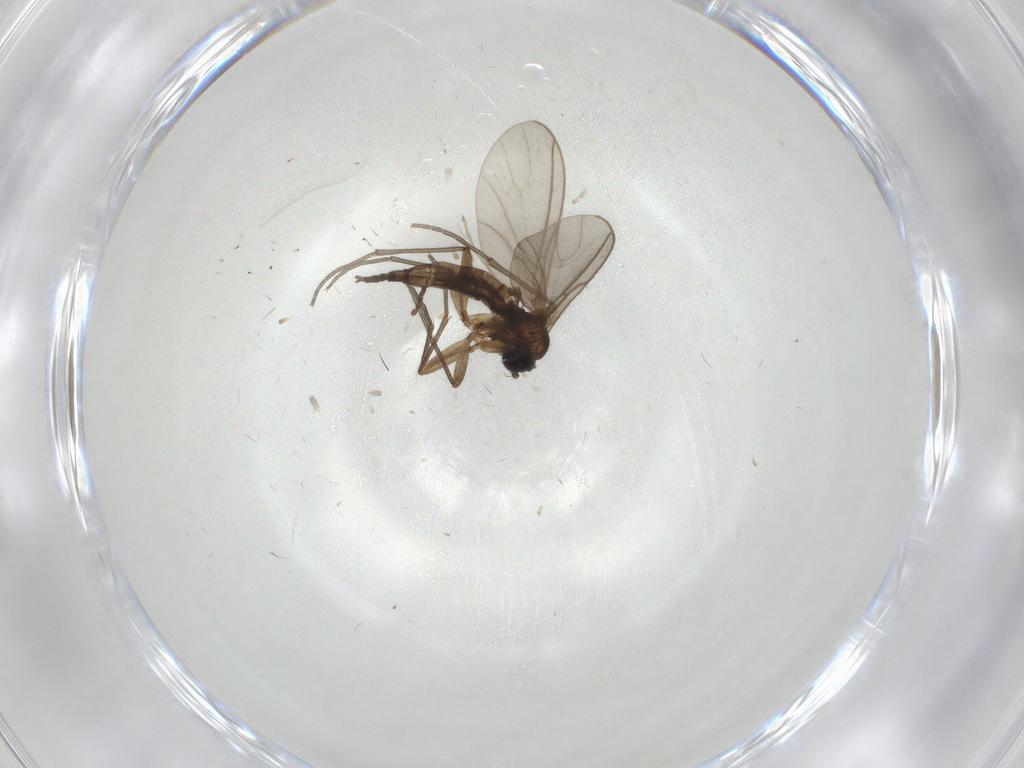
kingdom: Animalia
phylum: Arthropoda
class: Insecta
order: Diptera
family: Sciaridae
